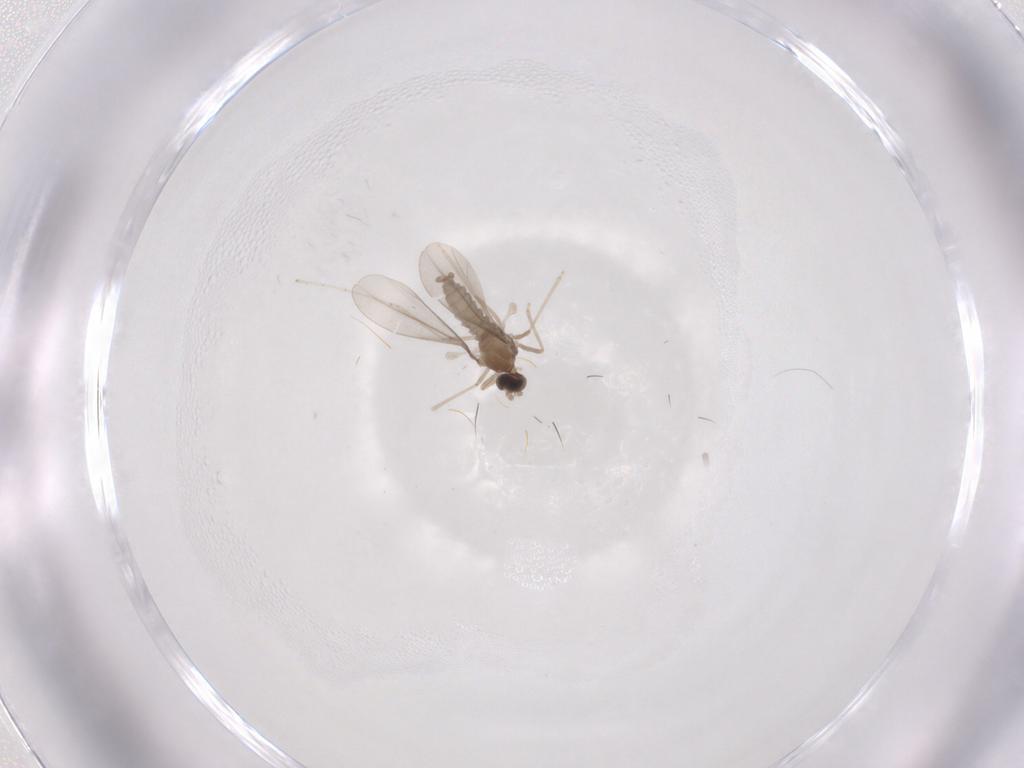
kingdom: Animalia
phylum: Arthropoda
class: Insecta
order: Diptera
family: Cecidomyiidae
